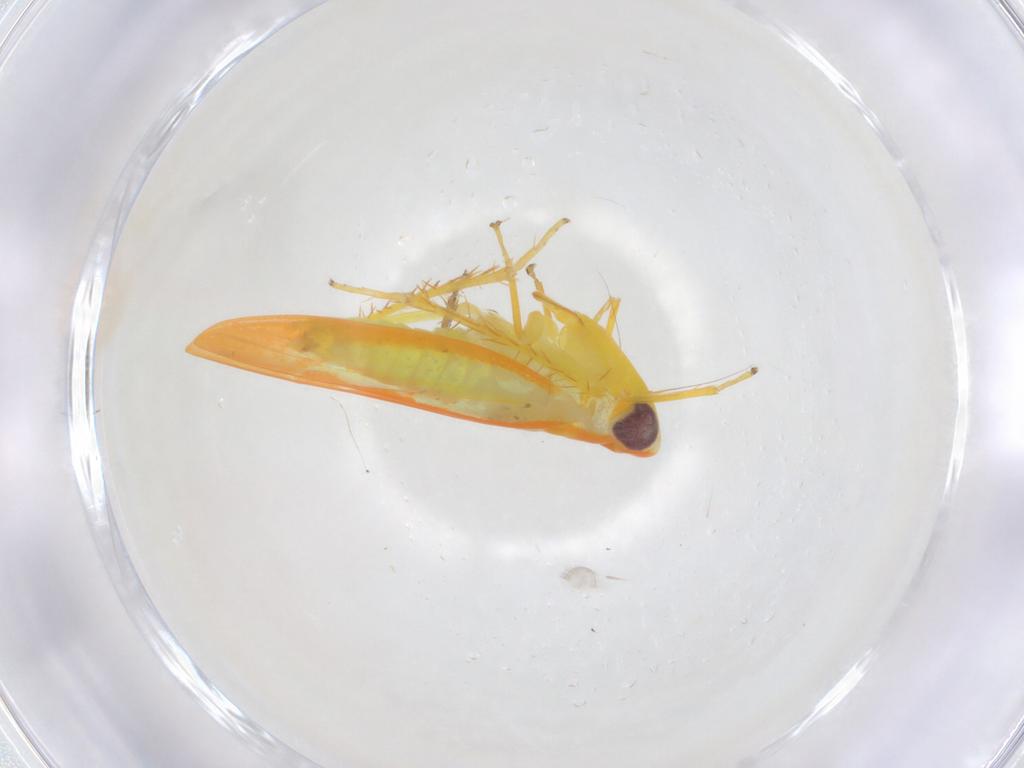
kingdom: Animalia
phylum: Arthropoda
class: Insecta
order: Hemiptera
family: Cicadellidae
